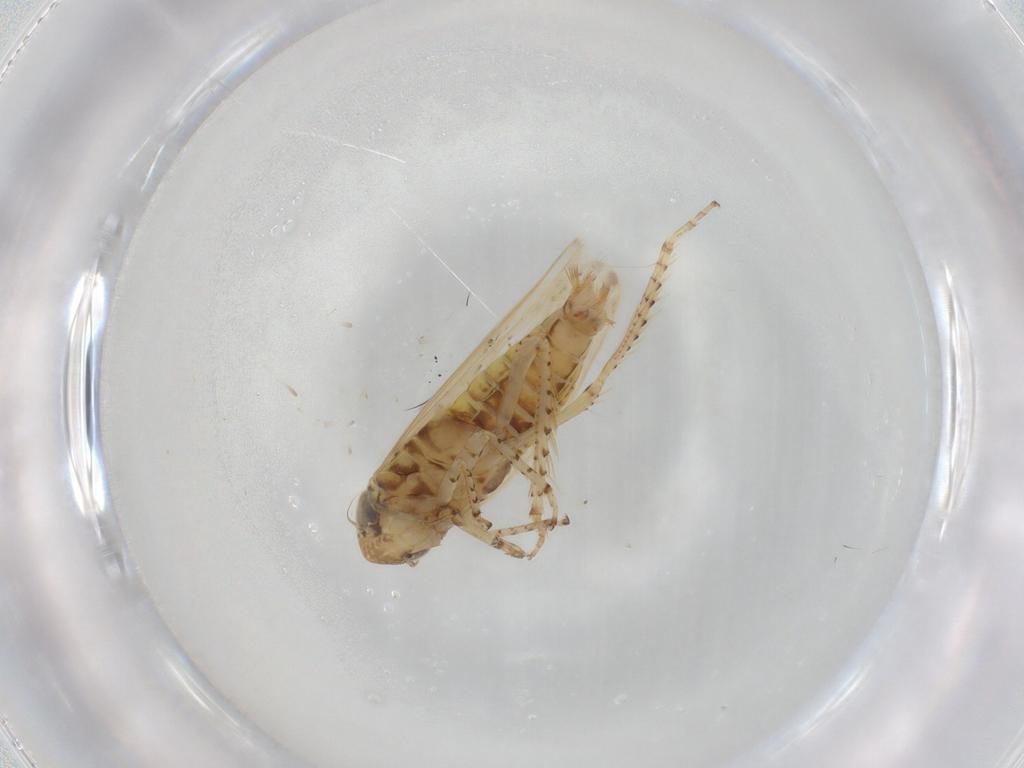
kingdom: Animalia
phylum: Arthropoda
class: Insecta
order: Hemiptera
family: Cicadellidae
